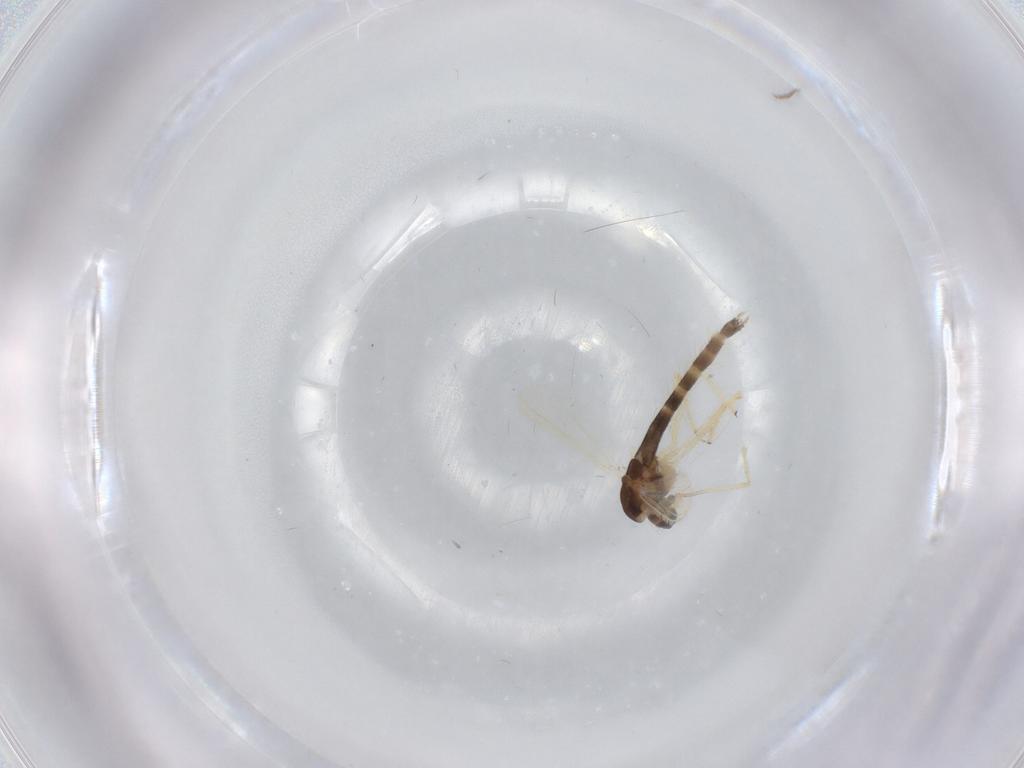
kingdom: Animalia
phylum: Arthropoda
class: Insecta
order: Diptera
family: Chironomidae
